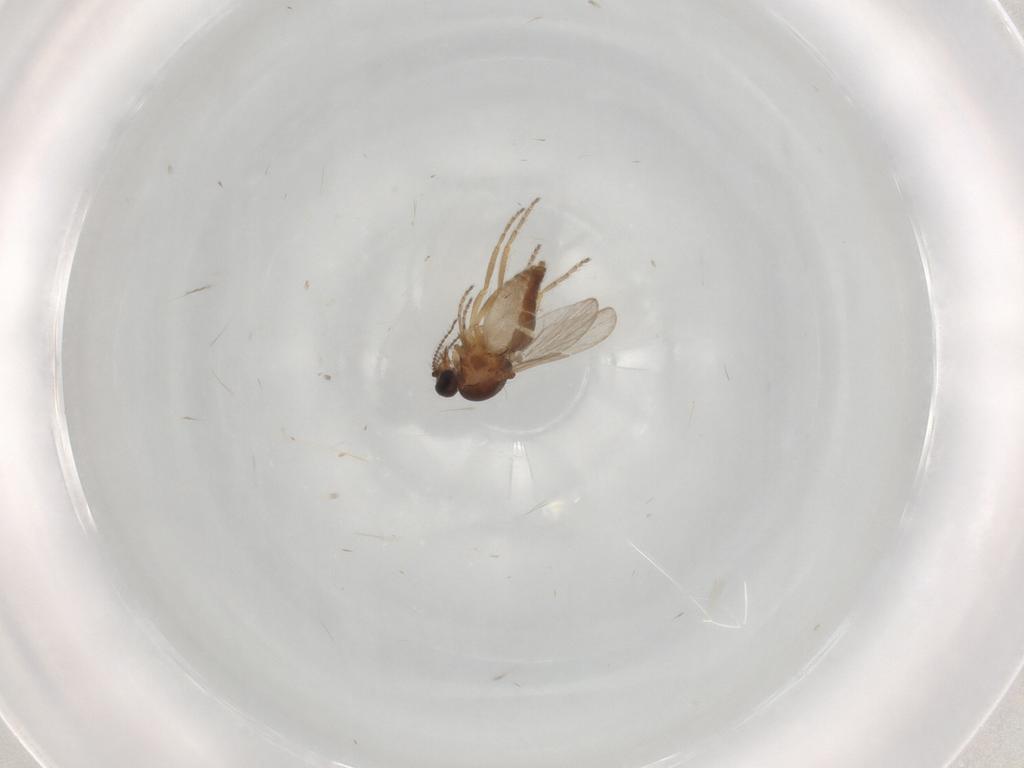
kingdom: Animalia
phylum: Arthropoda
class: Insecta
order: Diptera
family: Ceratopogonidae
